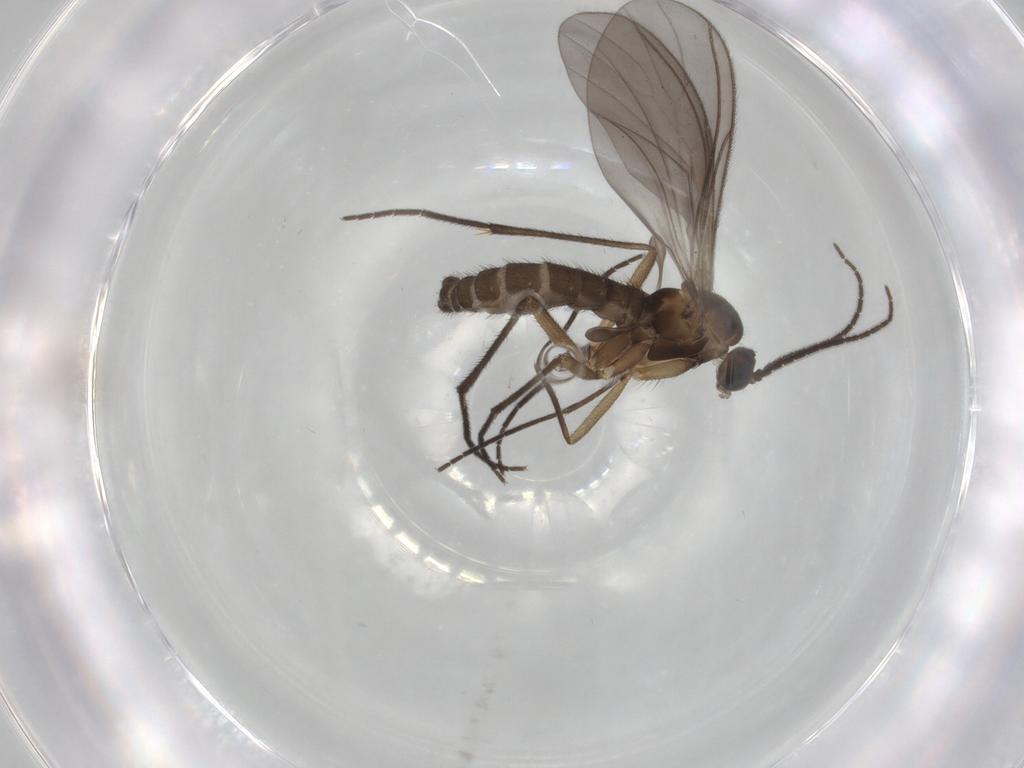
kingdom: Animalia
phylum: Arthropoda
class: Insecta
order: Diptera
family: Sciaridae
